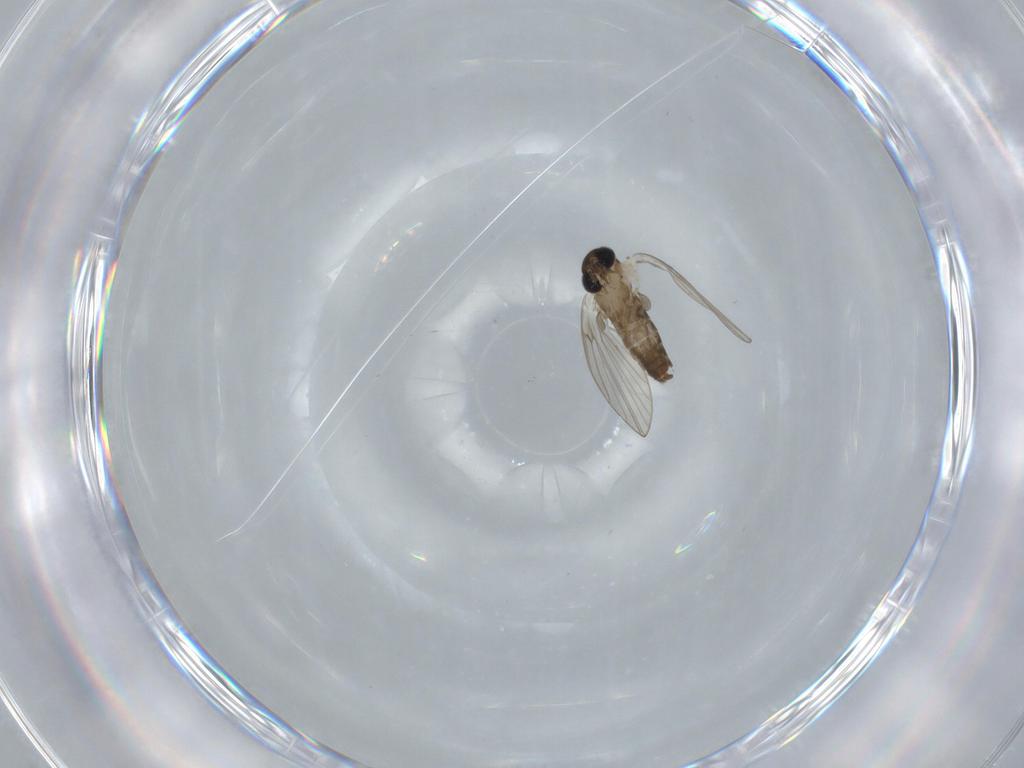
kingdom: Animalia
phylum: Arthropoda
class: Insecta
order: Diptera
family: Psychodidae
